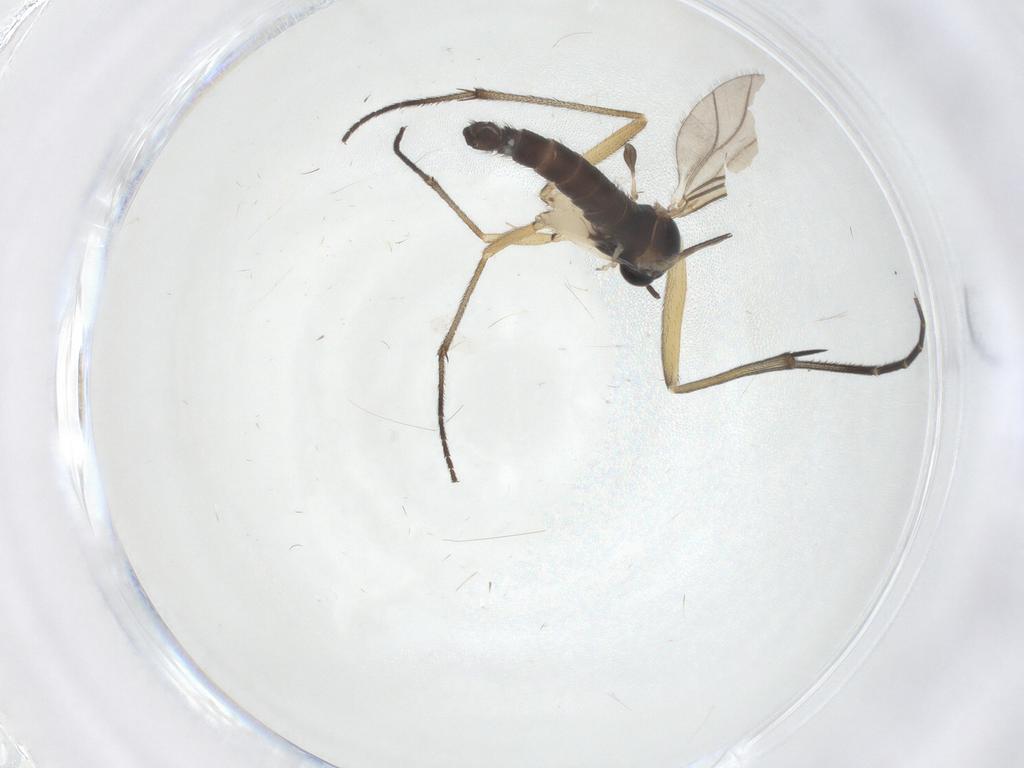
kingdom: Animalia
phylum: Arthropoda
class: Insecta
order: Diptera
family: Sciaridae
